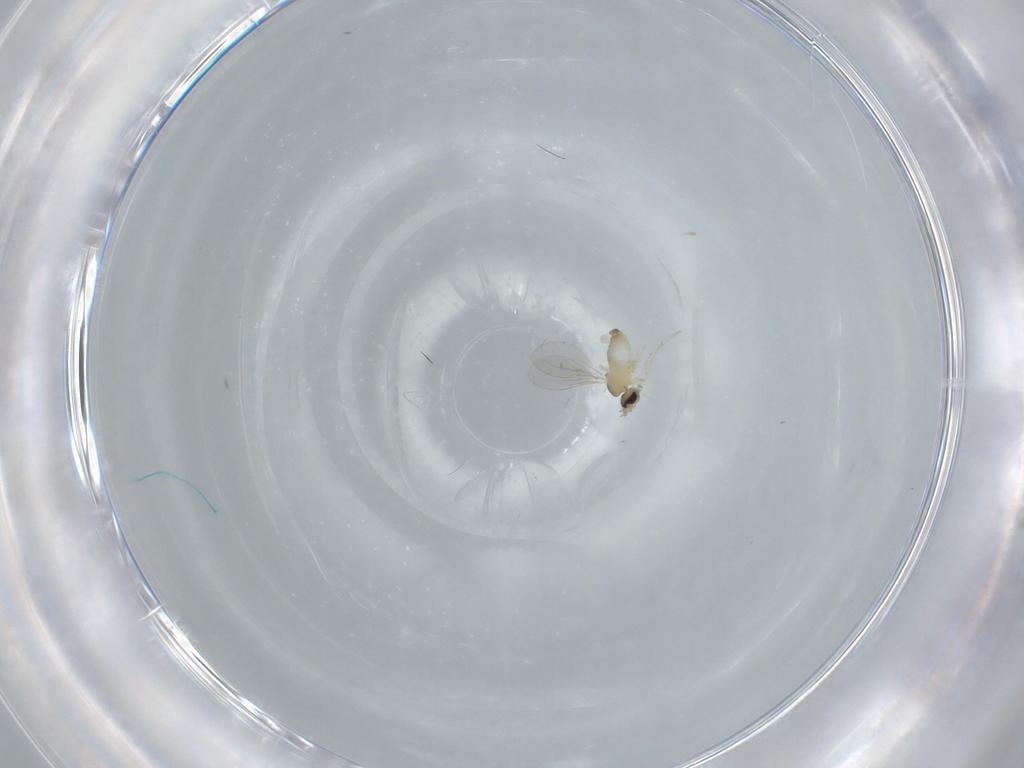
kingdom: Animalia
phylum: Arthropoda
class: Insecta
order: Diptera
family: Cecidomyiidae
